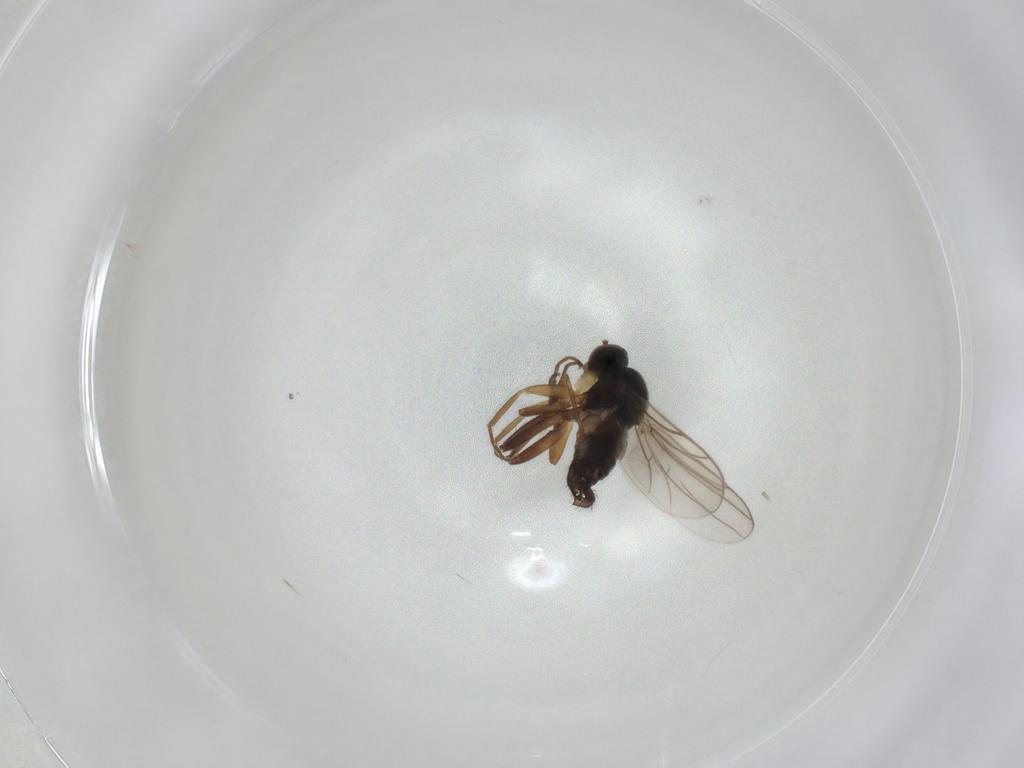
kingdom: Animalia
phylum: Arthropoda
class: Insecta
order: Diptera
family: Hybotidae
